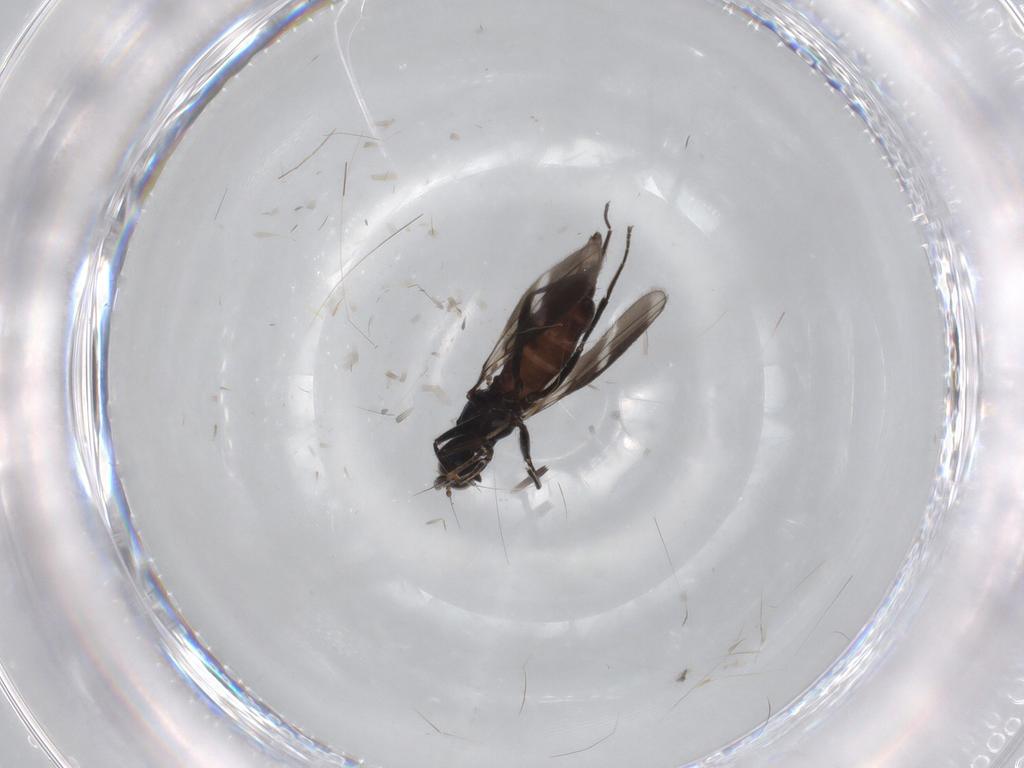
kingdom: Animalia
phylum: Arthropoda
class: Insecta
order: Diptera
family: Hybotidae
